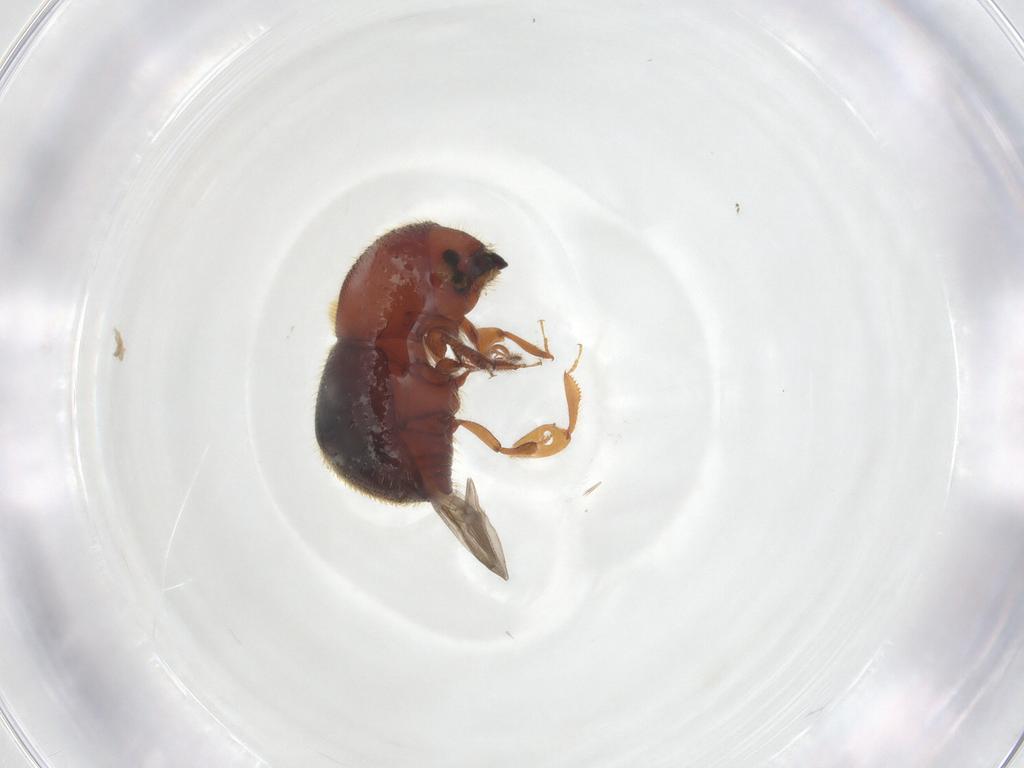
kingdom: Animalia
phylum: Arthropoda
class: Insecta
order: Coleoptera
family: Curculionidae
